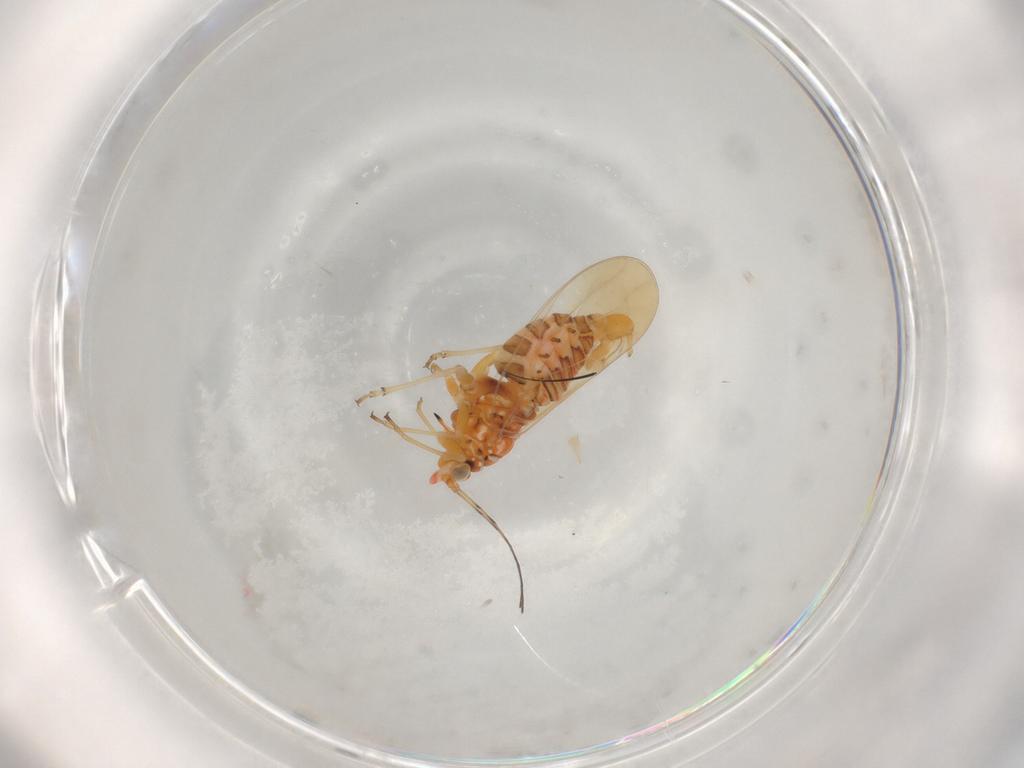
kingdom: Animalia
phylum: Arthropoda
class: Insecta
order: Hemiptera
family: Psyllidae
